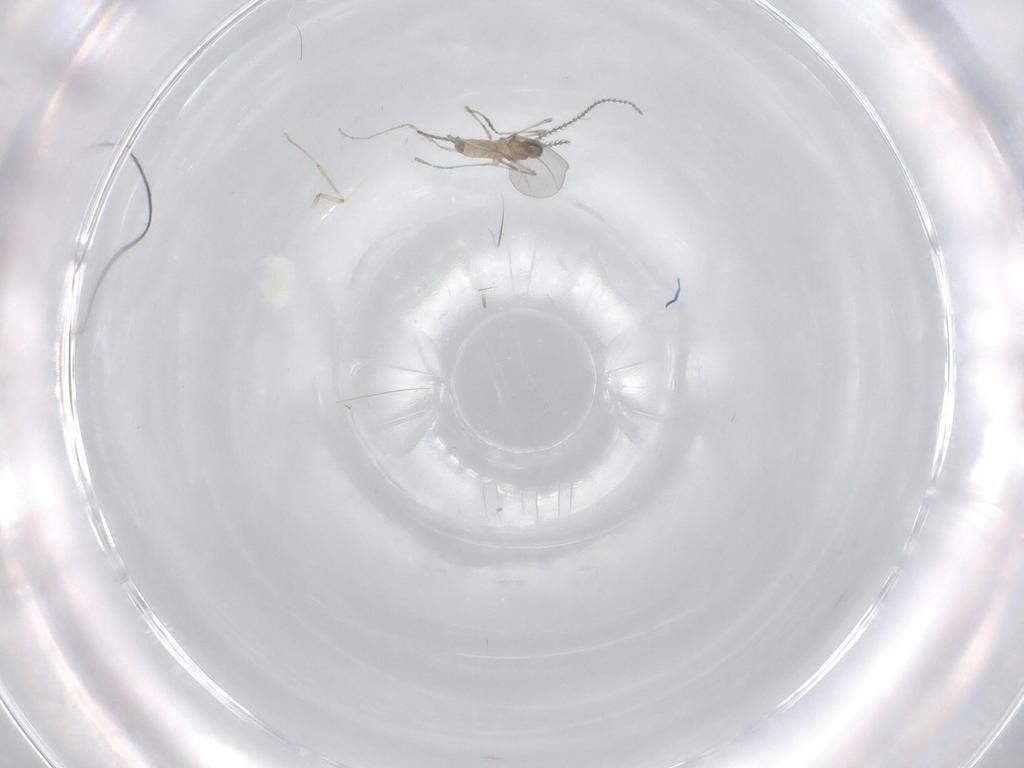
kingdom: Animalia
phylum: Arthropoda
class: Insecta
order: Diptera
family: Cecidomyiidae
